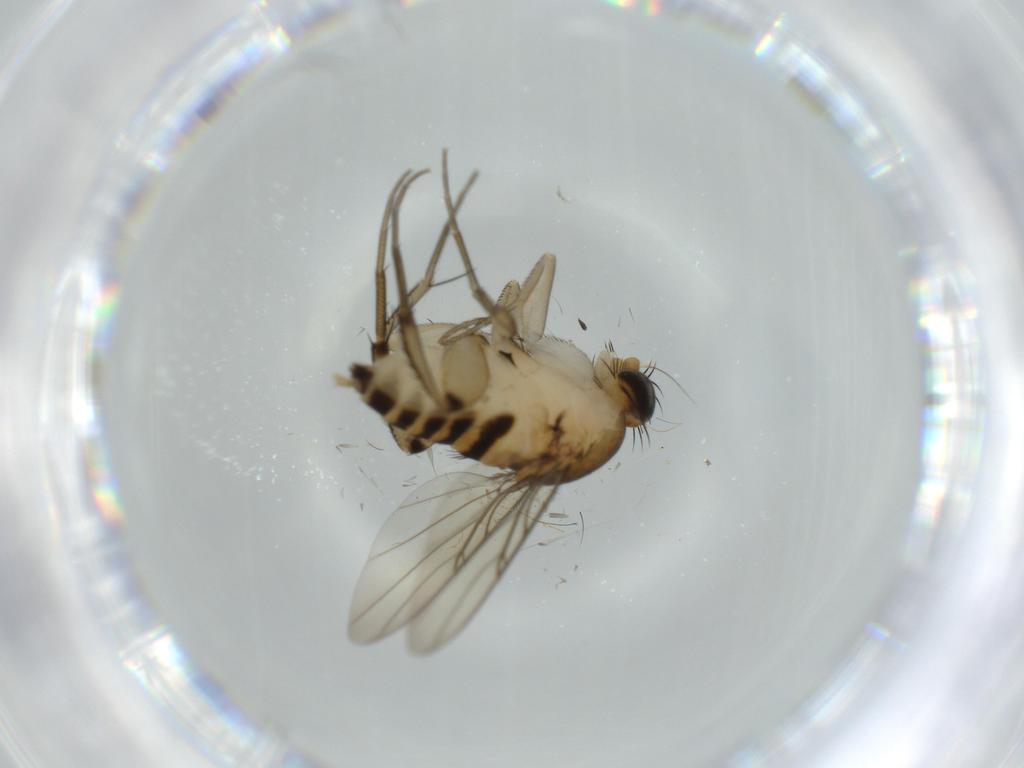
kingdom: Animalia
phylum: Arthropoda
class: Insecta
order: Diptera
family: Phoridae
